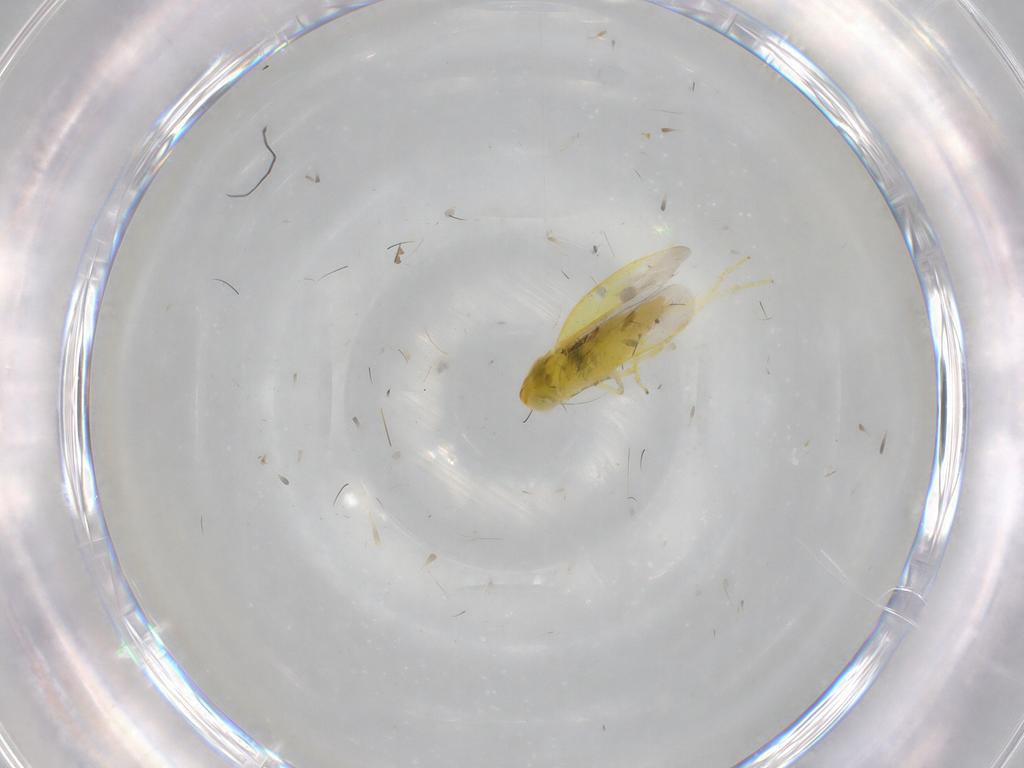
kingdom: Animalia
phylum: Arthropoda
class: Insecta
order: Hemiptera
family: Cicadellidae
